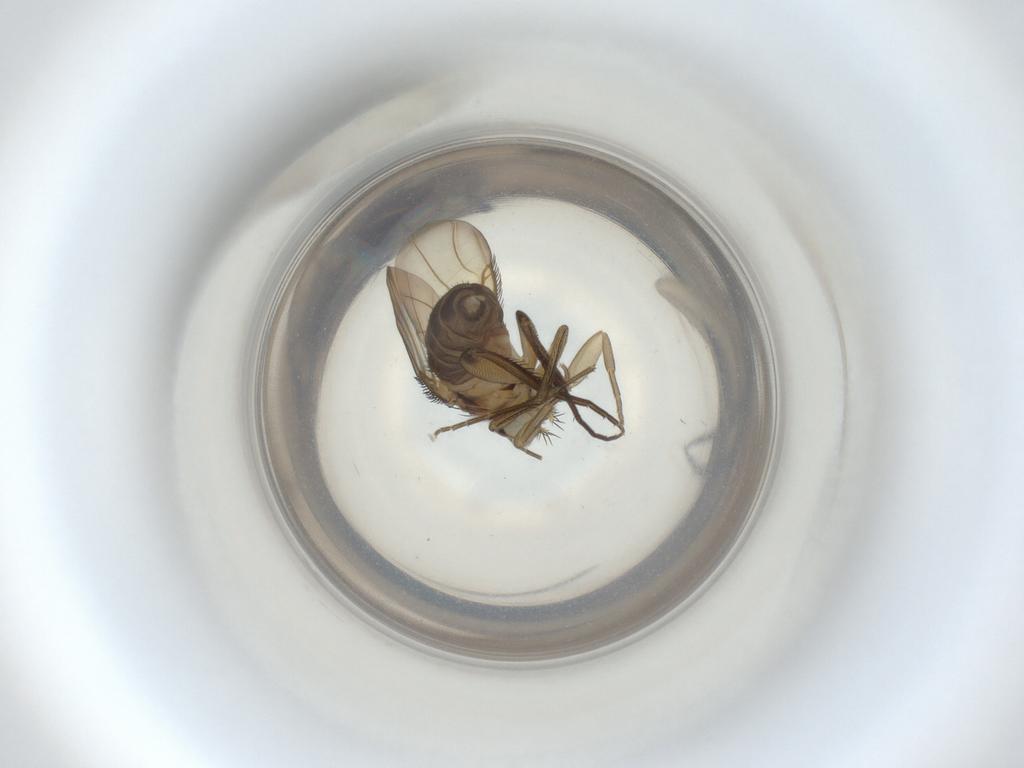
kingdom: Animalia
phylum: Arthropoda
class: Insecta
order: Diptera
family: Phoridae
